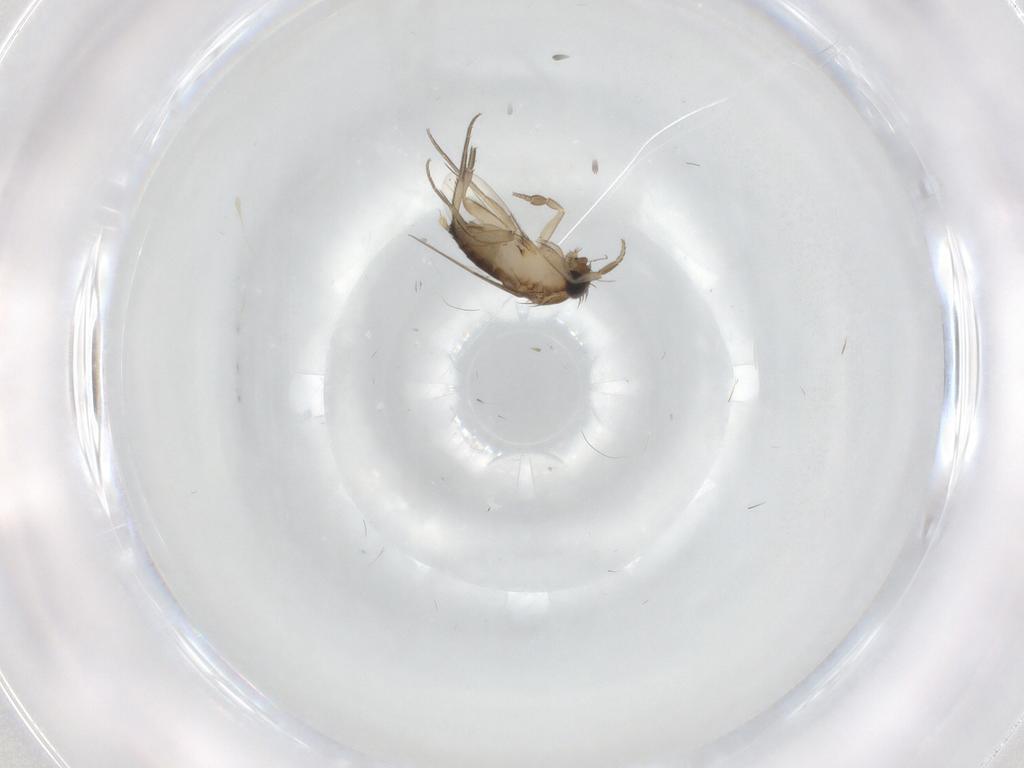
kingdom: Animalia
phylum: Arthropoda
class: Insecta
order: Diptera
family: Phoridae
